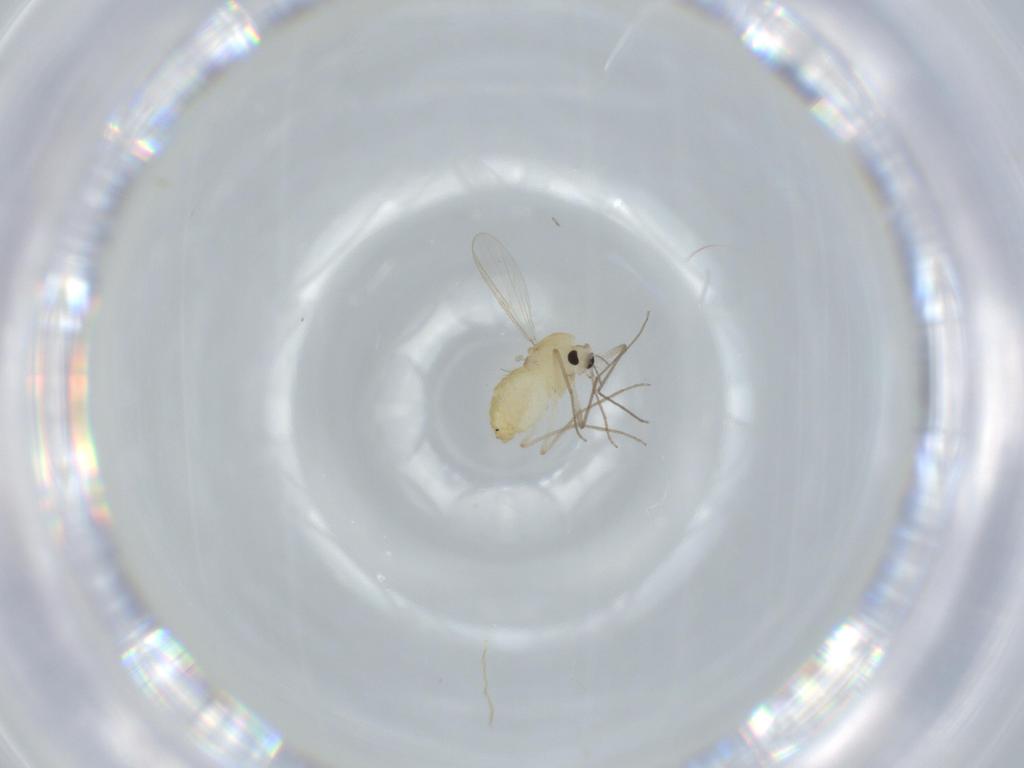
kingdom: Animalia
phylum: Arthropoda
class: Insecta
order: Diptera
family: Chironomidae
